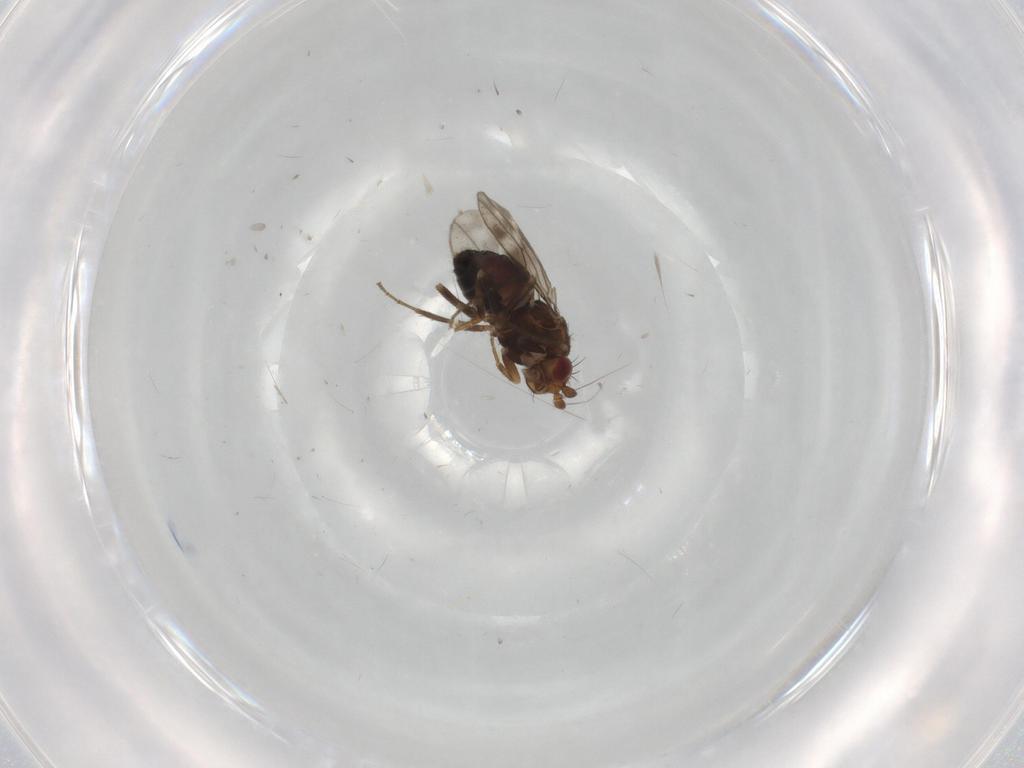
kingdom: Animalia
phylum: Arthropoda
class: Insecta
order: Diptera
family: Sphaeroceridae
